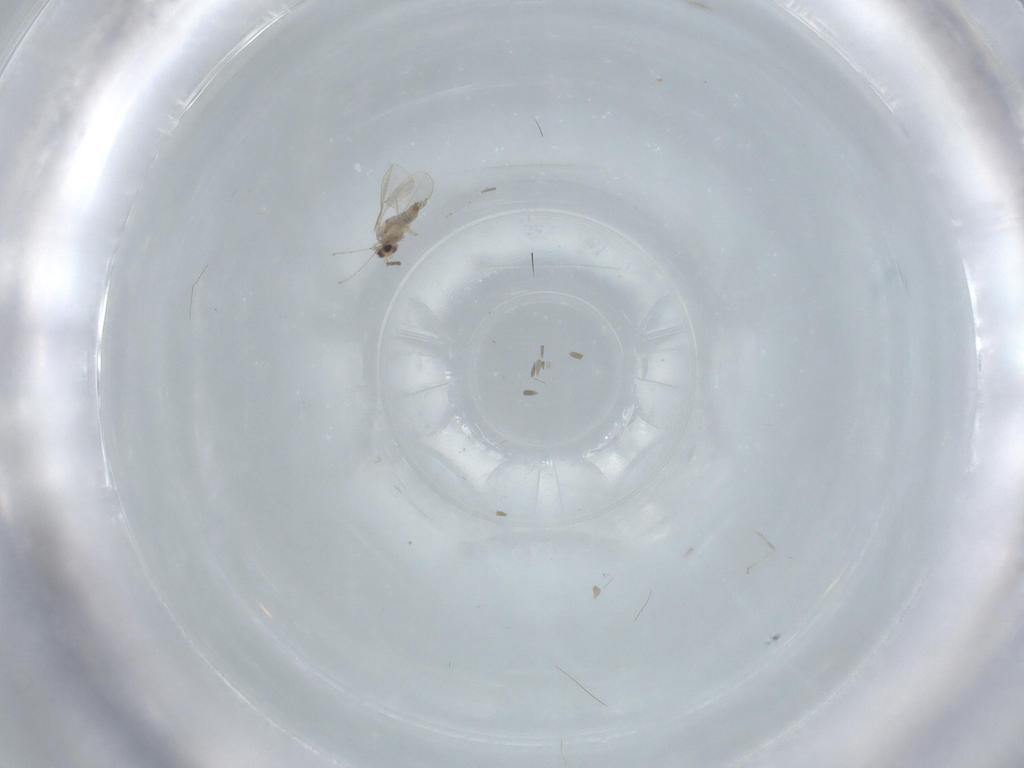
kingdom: Animalia
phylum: Arthropoda
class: Insecta
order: Diptera
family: Cecidomyiidae
